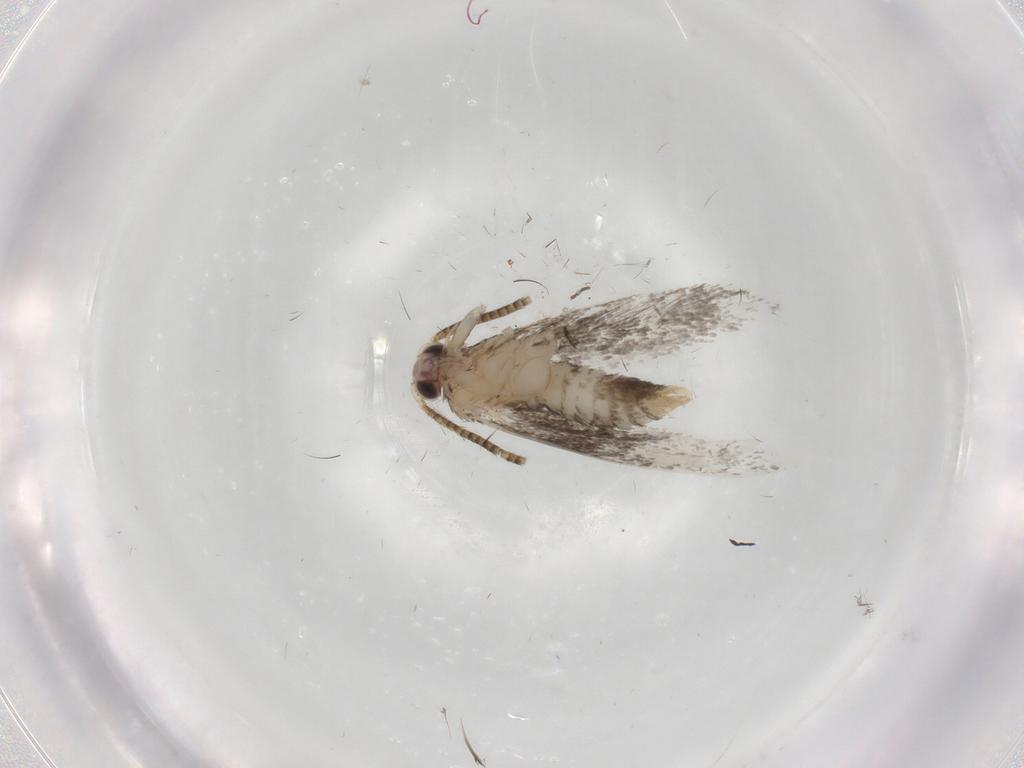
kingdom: Animalia
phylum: Arthropoda
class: Insecta
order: Lepidoptera
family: Tineidae
